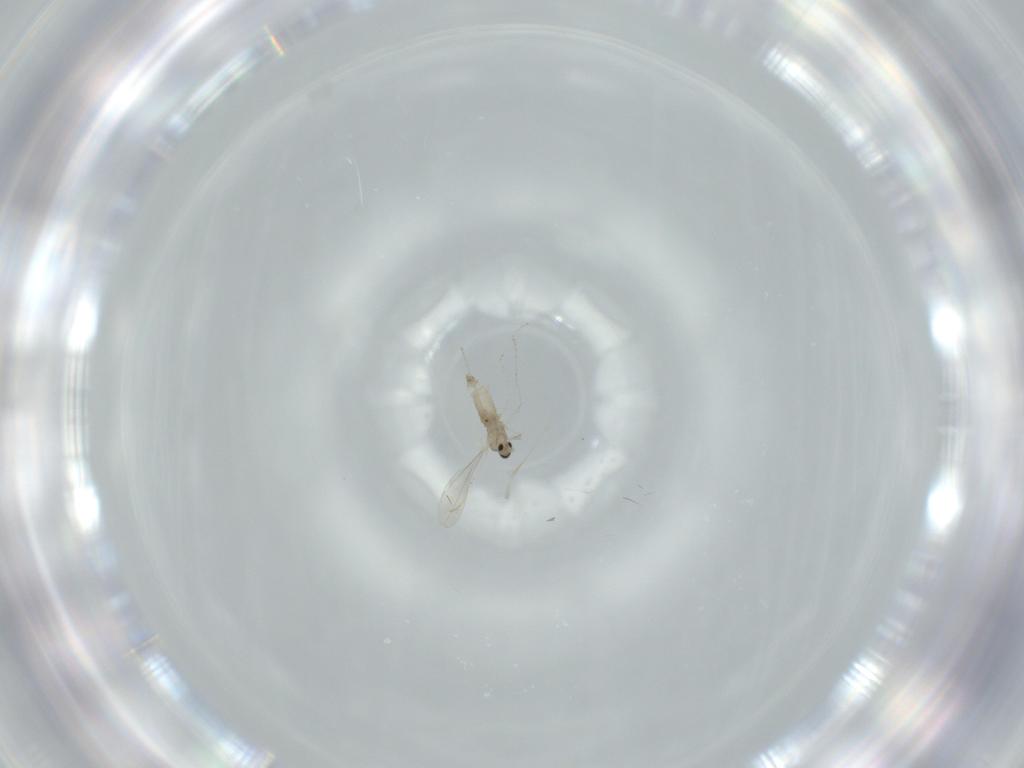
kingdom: Animalia
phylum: Arthropoda
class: Insecta
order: Diptera
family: Cecidomyiidae
